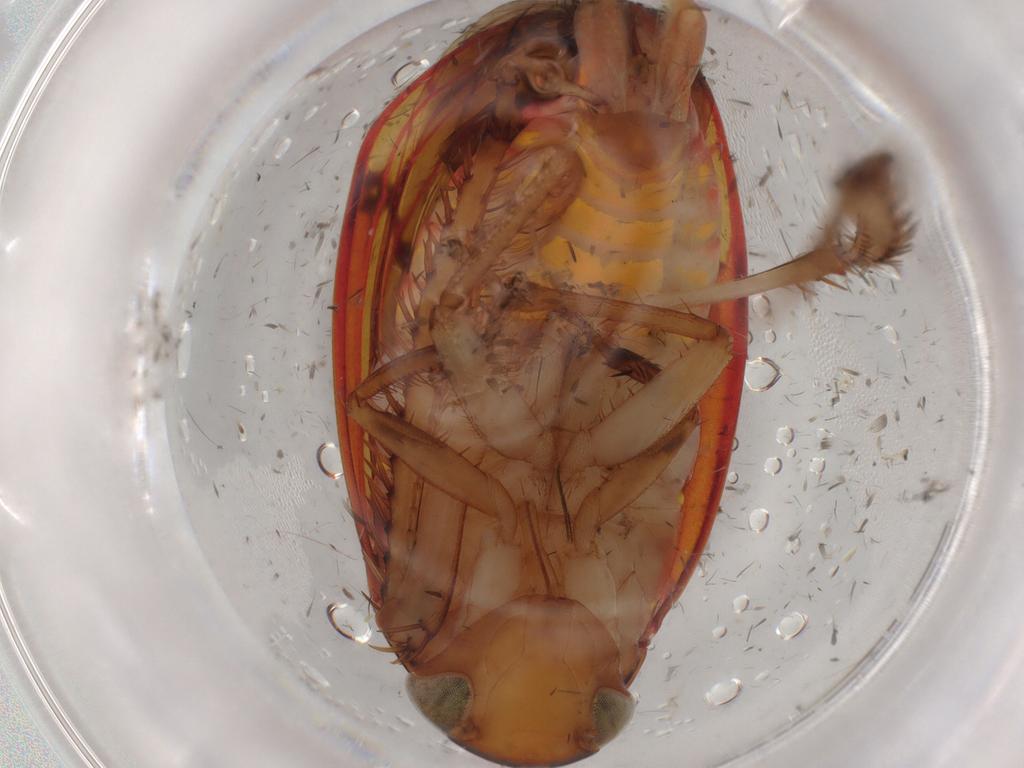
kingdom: Animalia
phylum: Arthropoda
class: Insecta
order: Hemiptera
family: Cicadellidae
